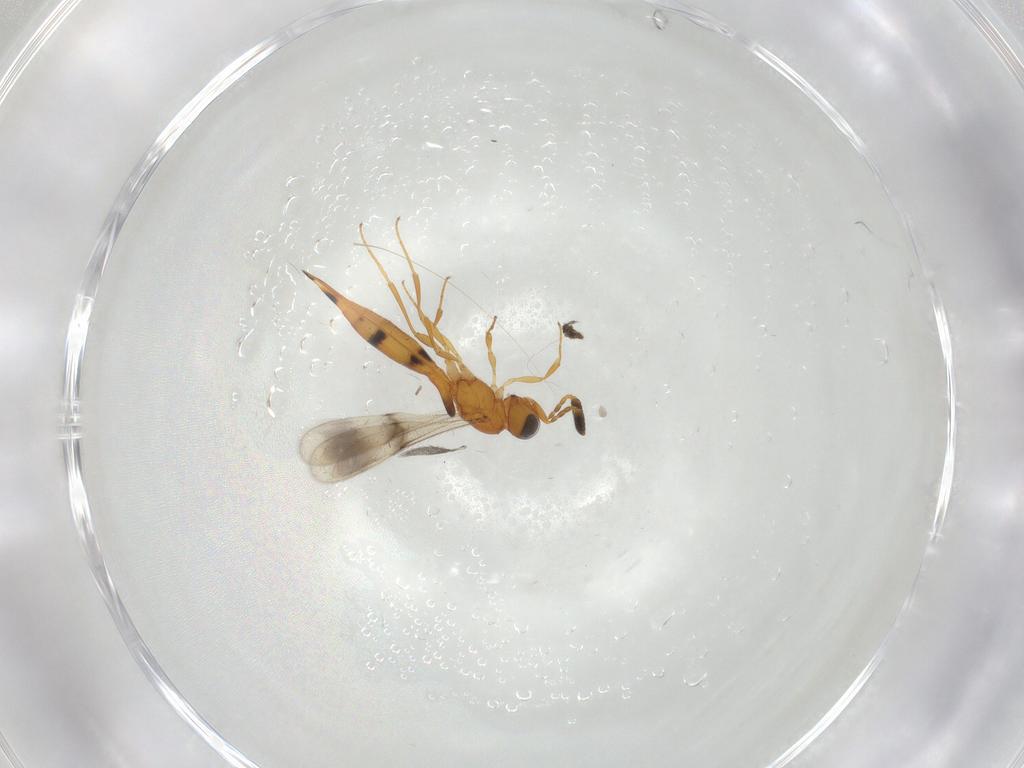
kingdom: Animalia
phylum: Arthropoda
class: Insecta
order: Hymenoptera
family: Scelionidae
